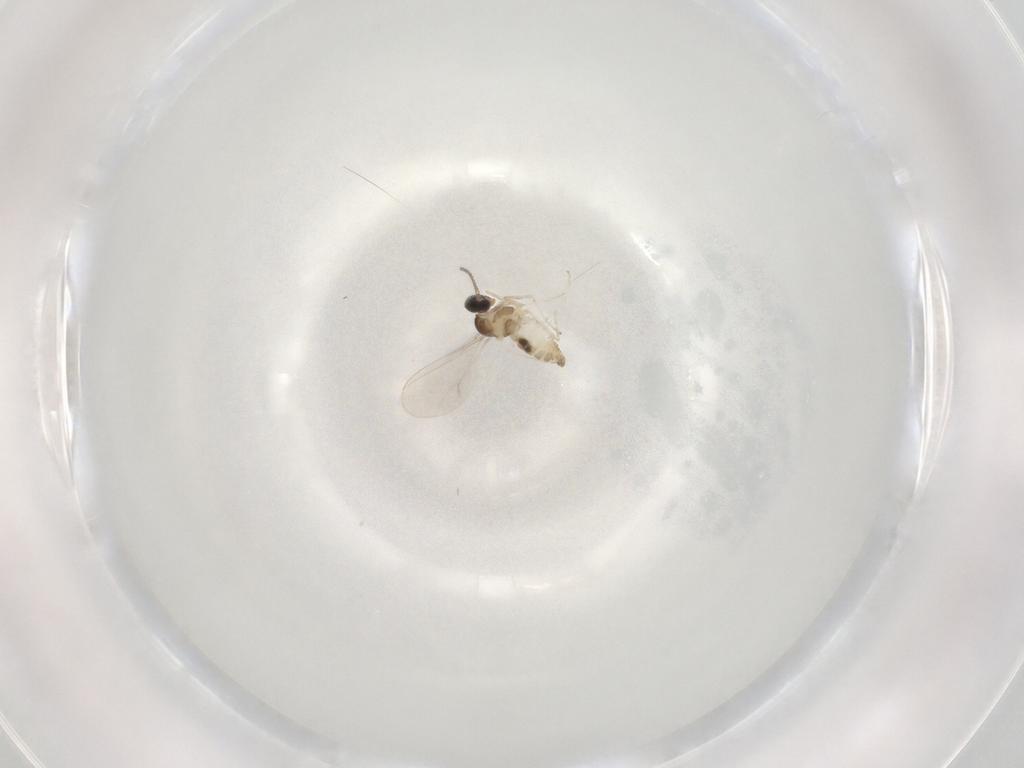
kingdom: Animalia
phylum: Arthropoda
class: Insecta
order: Diptera
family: Cecidomyiidae
